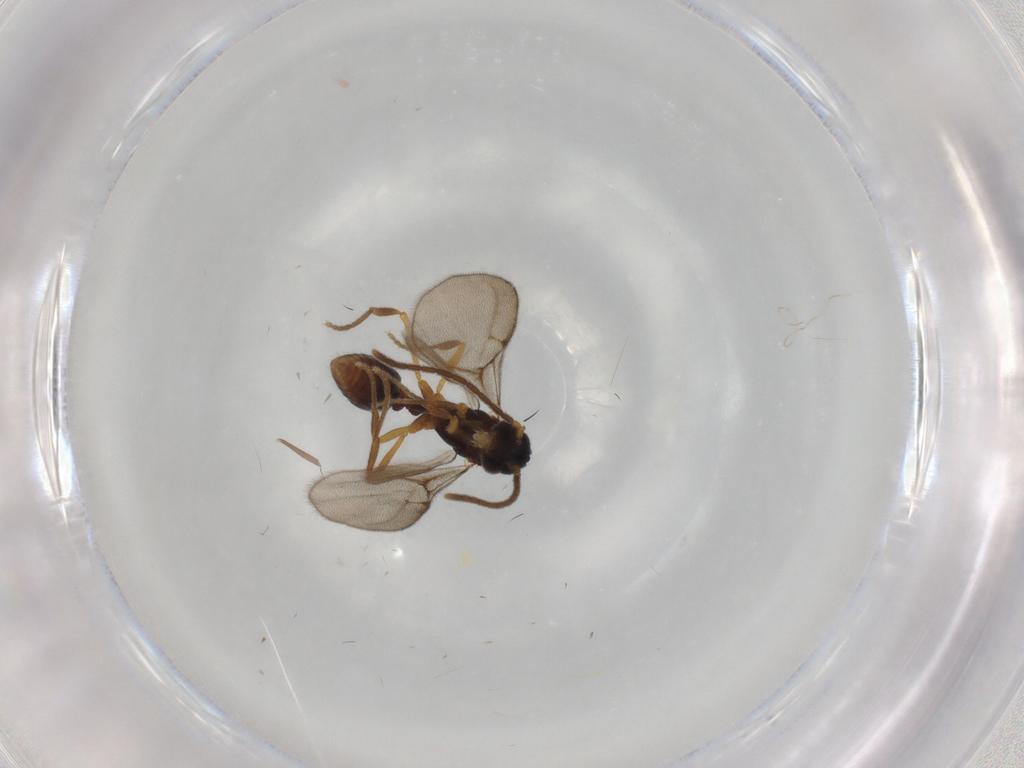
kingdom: Animalia
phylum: Arthropoda
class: Insecta
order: Hymenoptera
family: Formicidae
